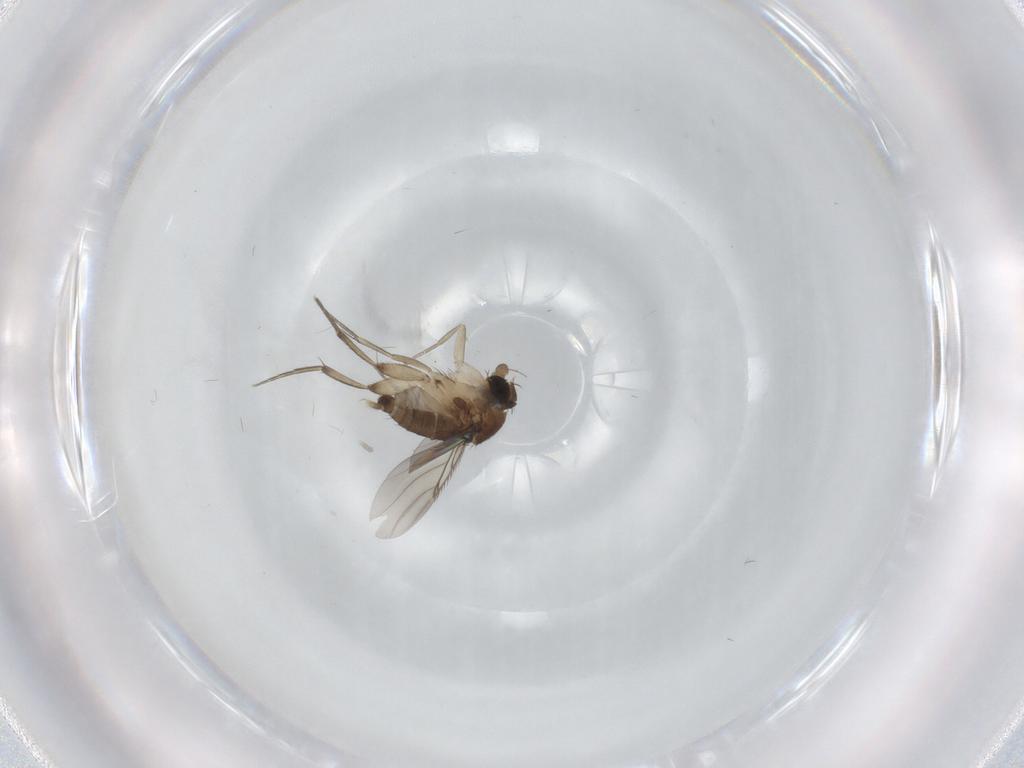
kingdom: Animalia
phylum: Arthropoda
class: Insecta
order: Diptera
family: Phoridae
